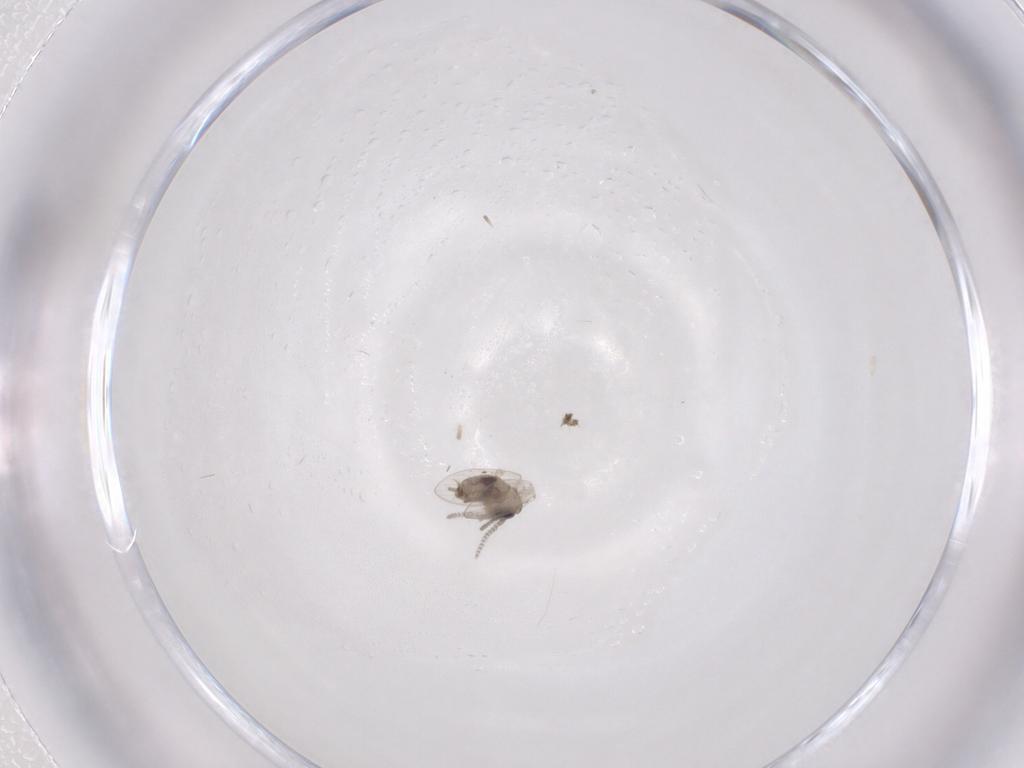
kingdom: Animalia
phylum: Arthropoda
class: Insecta
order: Diptera
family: Psychodidae
